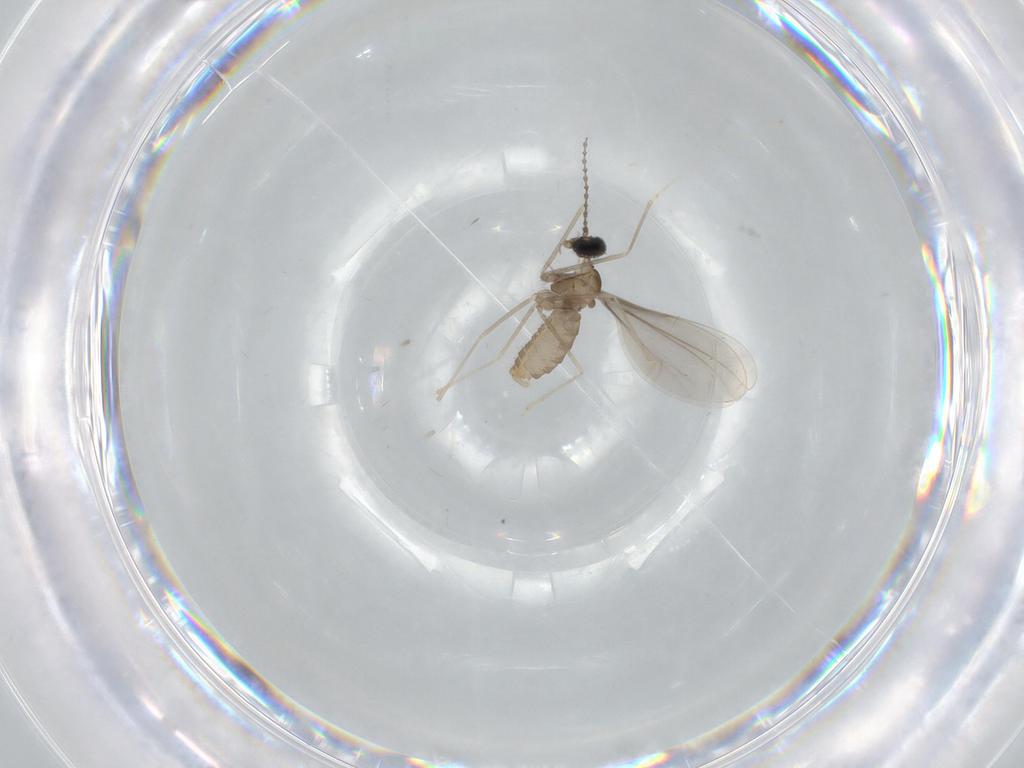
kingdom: Animalia
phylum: Arthropoda
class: Insecta
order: Diptera
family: Cecidomyiidae
